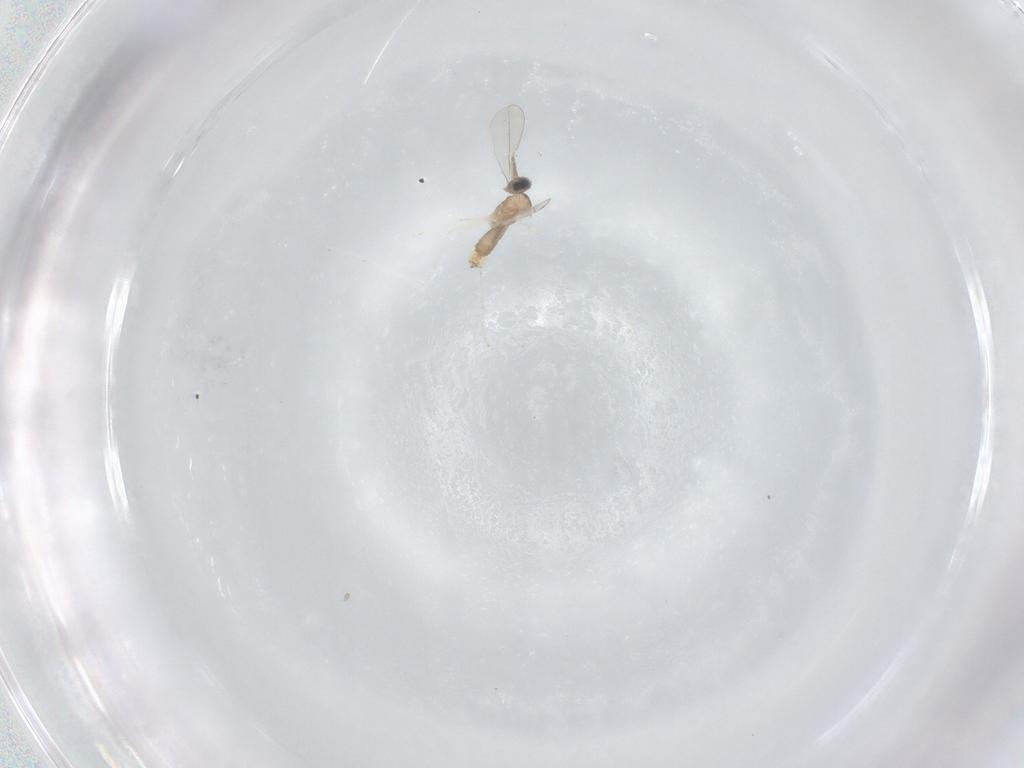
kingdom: Animalia
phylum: Arthropoda
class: Insecta
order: Diptera
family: Cecidomyiidae
